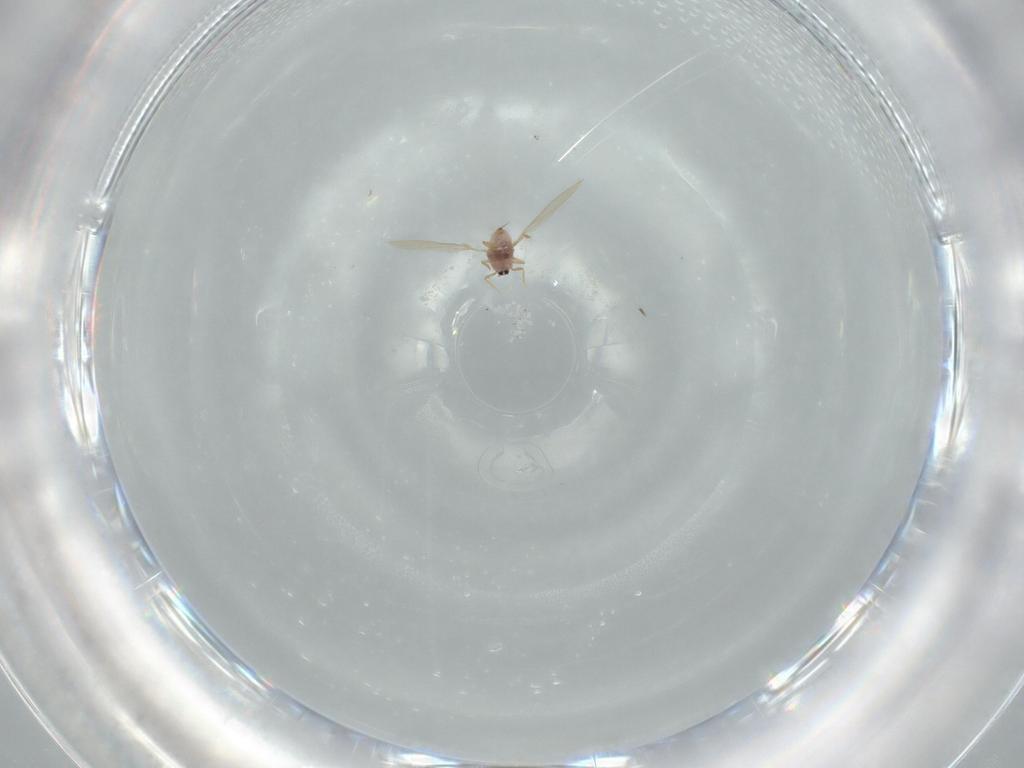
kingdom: Animalia
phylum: Arthropoda
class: Insecta
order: Hemiptera
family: Diaspididae
